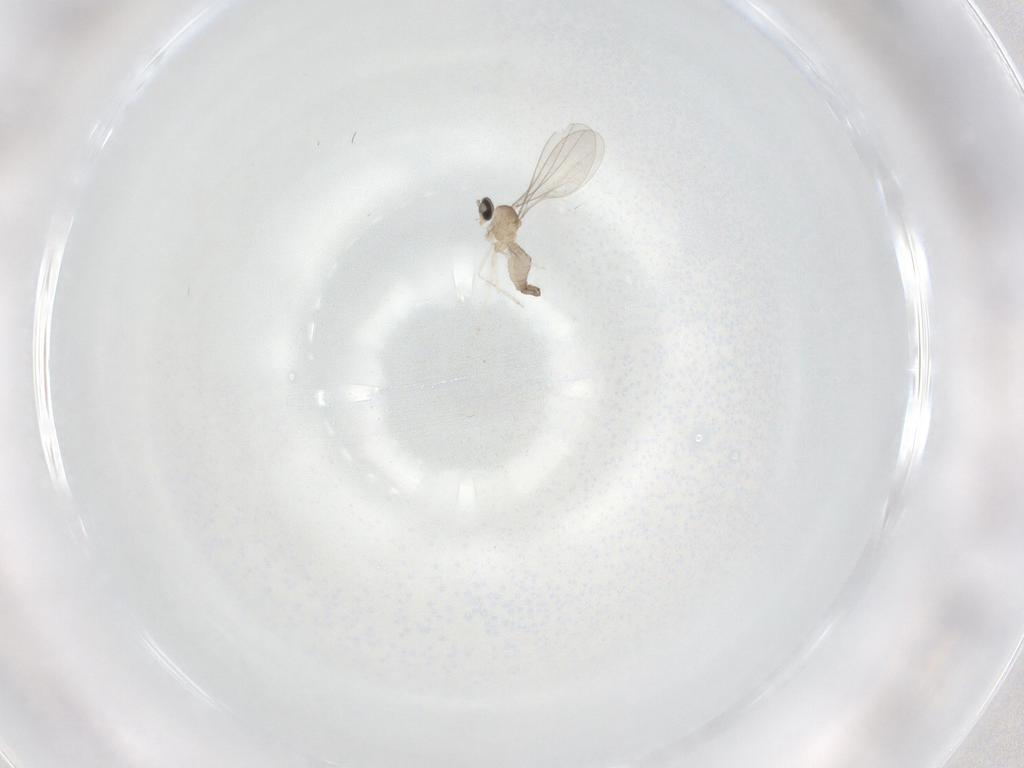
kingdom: Animalia
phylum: Arthropoda
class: Insecta
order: Diptera
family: Cecidomyiidae
